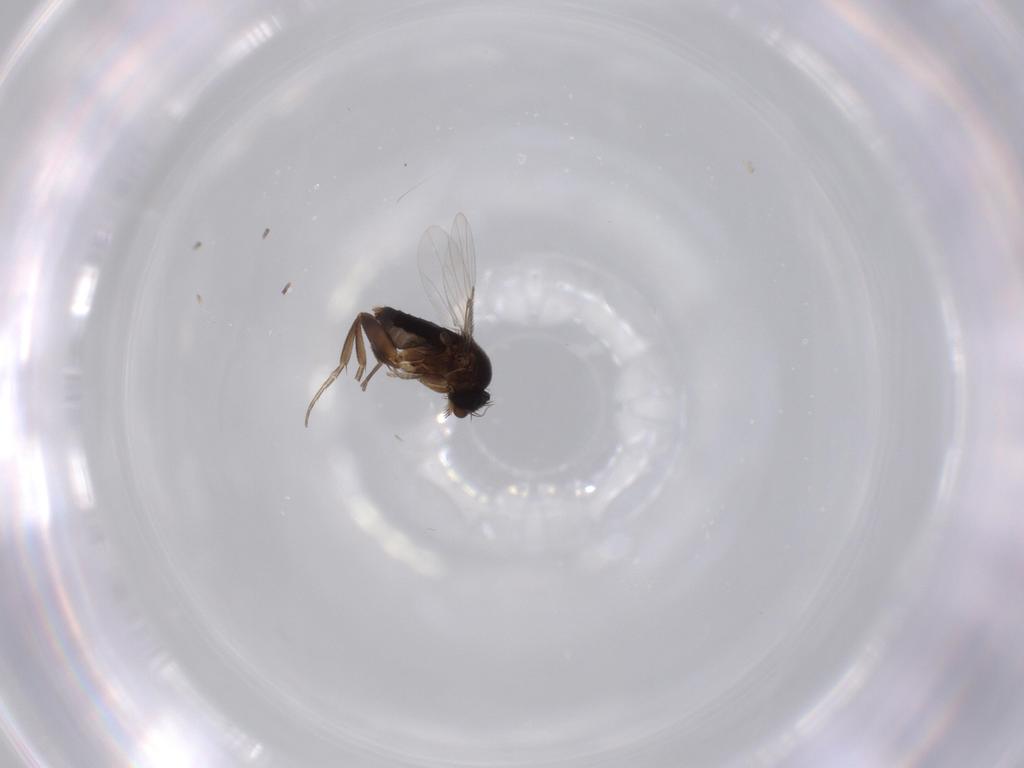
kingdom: Animalia
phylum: Arthropoda
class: Insecta
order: Diptera
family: Phoridae
